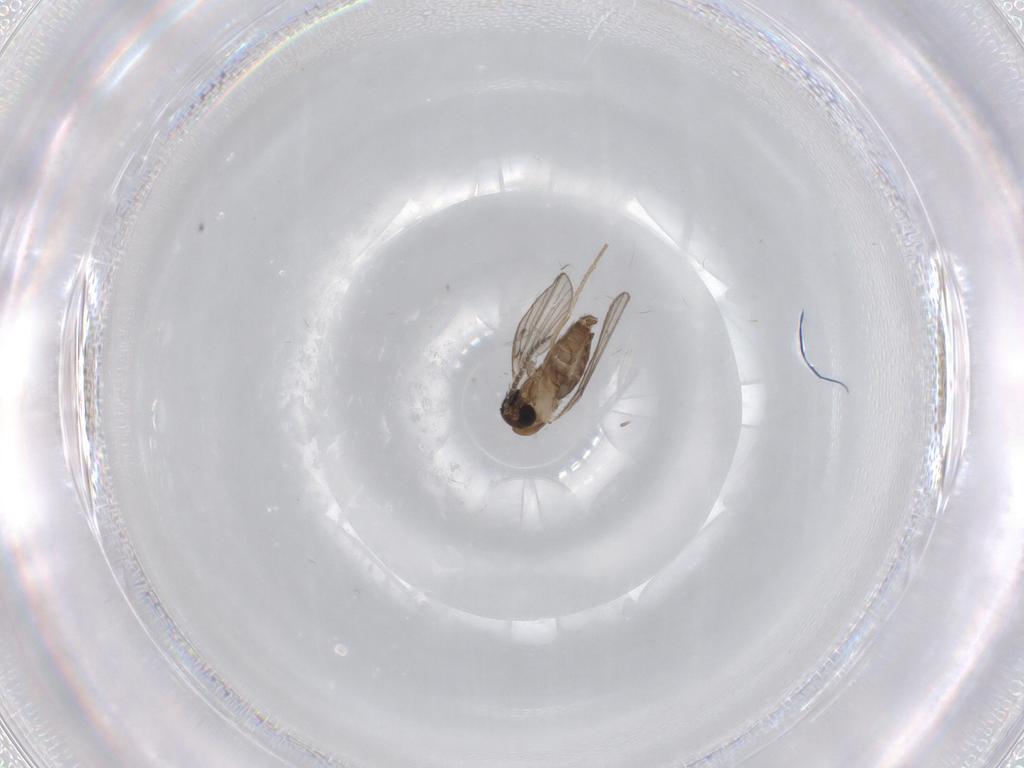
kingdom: Animalia
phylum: Arthropoda
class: Insecta
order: Diptera
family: Psychodidae
